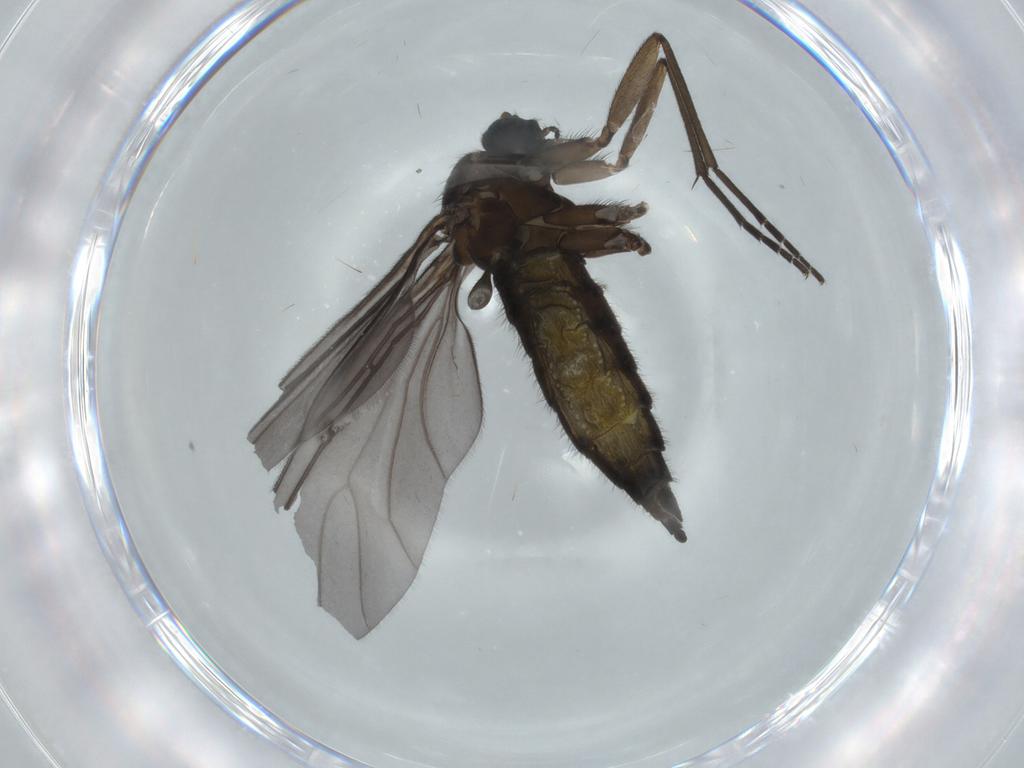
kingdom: Animalia
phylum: Arthropoda
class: Insecta
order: Diptera
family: Sciaridae
